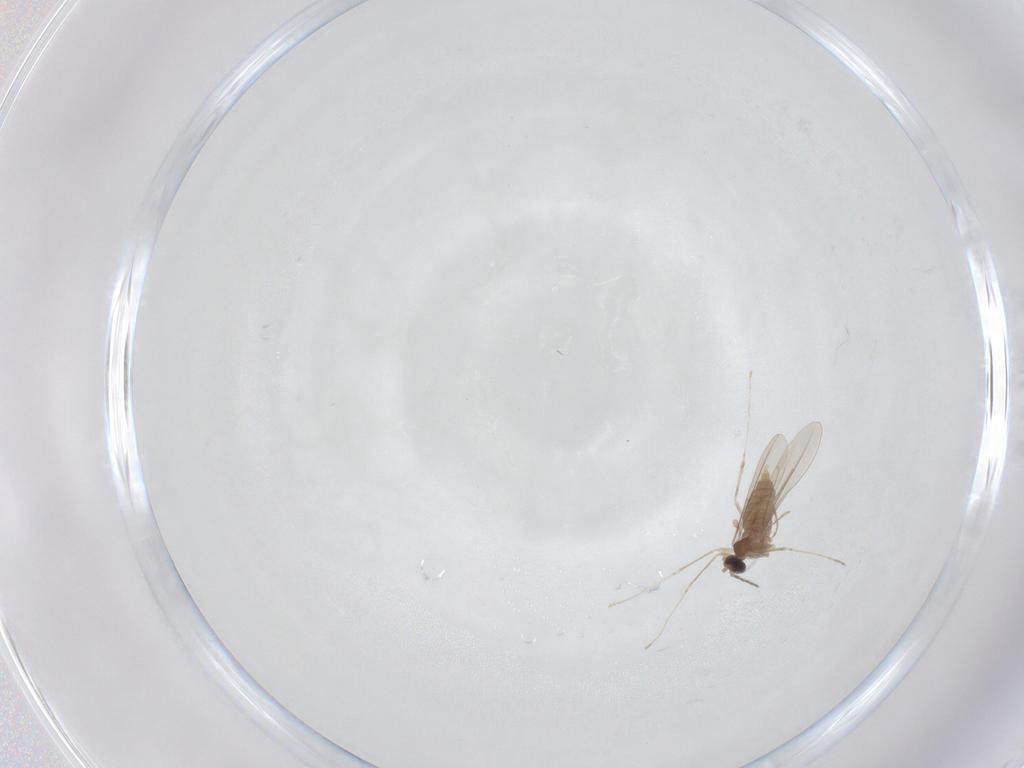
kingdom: Animalia
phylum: Arthropoda
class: Insecta
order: Diptera
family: Cecidomyiidae
